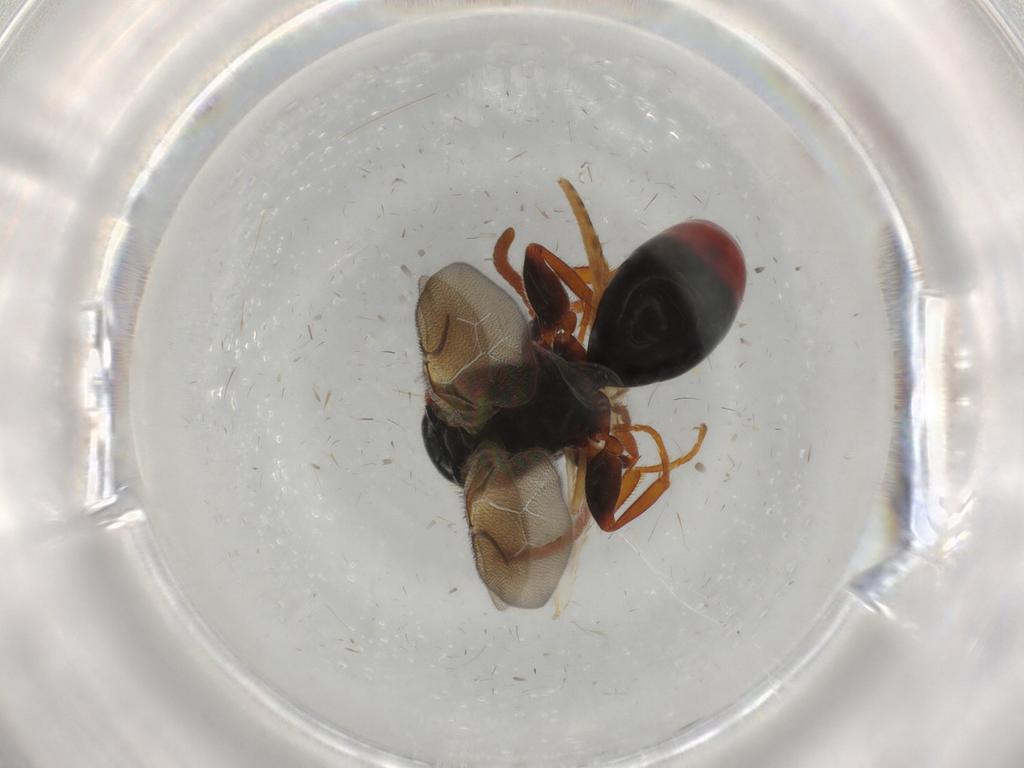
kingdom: Animalia
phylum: Arthropoda
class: Insecta
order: Hymenoptera
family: Bethylidae
